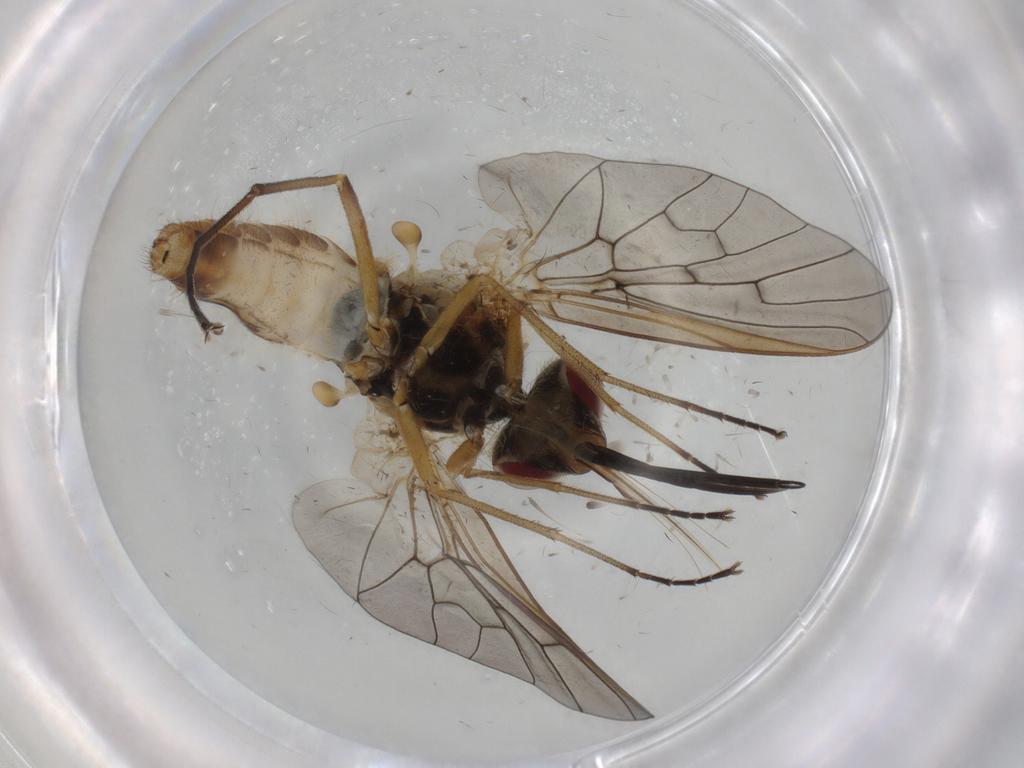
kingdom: Animalia
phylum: Arthropoda
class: Insecta
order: Diptera
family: Bombyliidae
